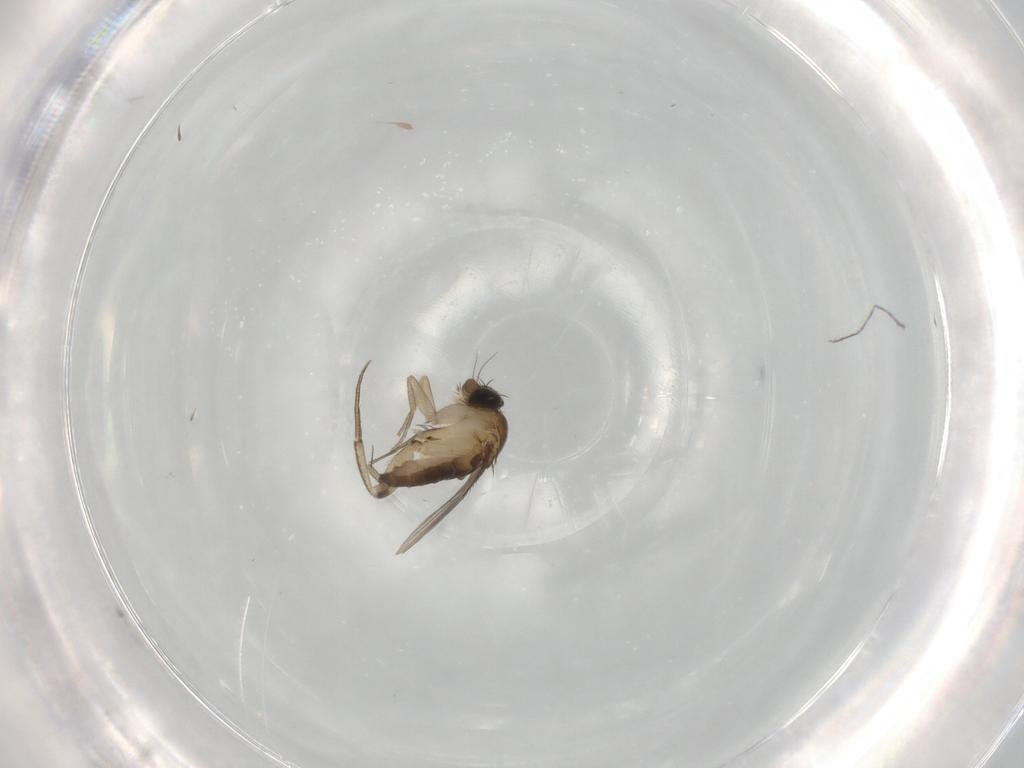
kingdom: Animalia
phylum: Arthropoda
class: Insecta
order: Diptera
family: Phoridae
